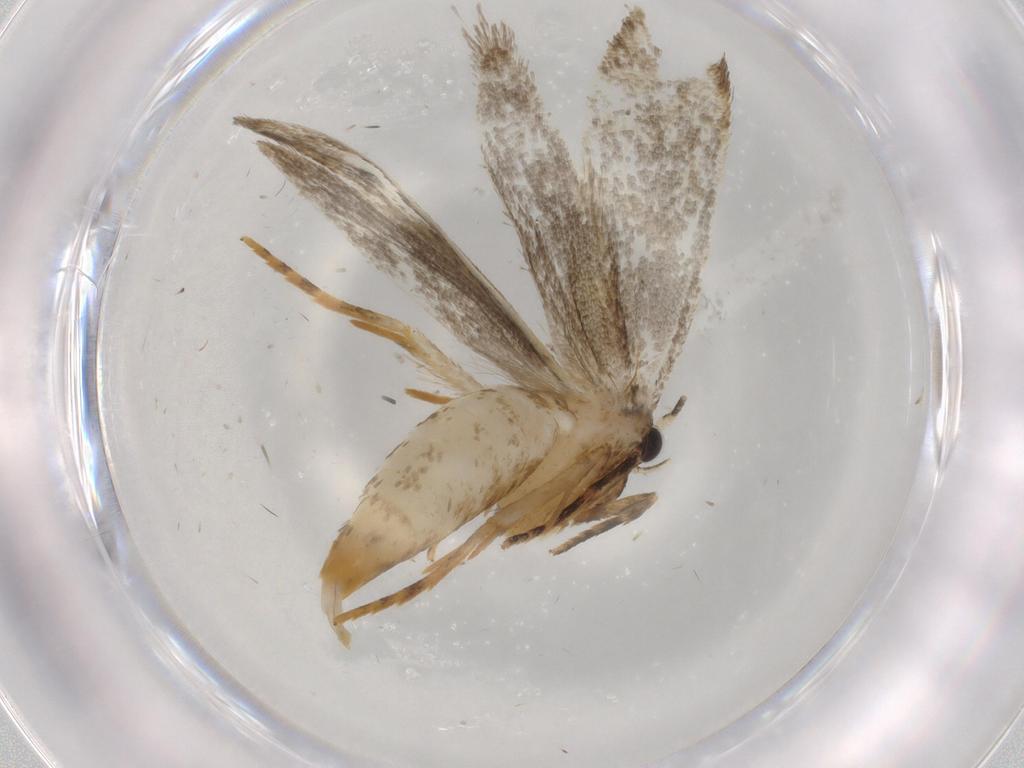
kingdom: Animalia
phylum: Arthropoda
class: Insecta
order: Lepidoptera
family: Tineidae
